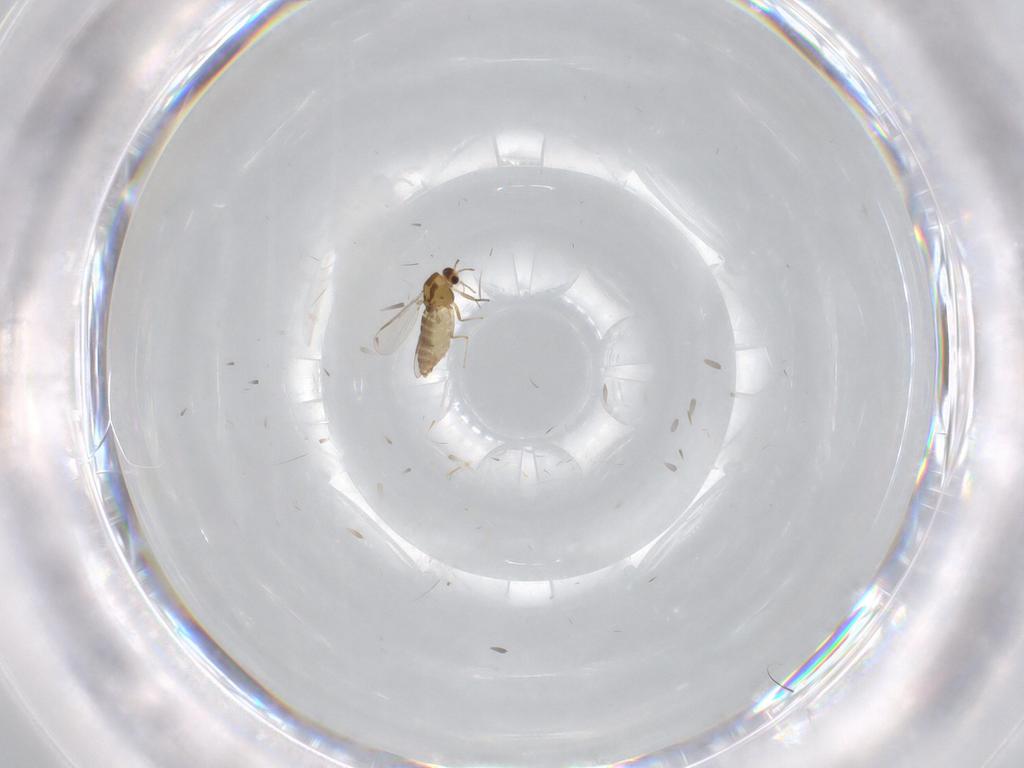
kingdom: Animalia
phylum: Arthropoda
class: Insecta
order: Diptera
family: Chironomidae
